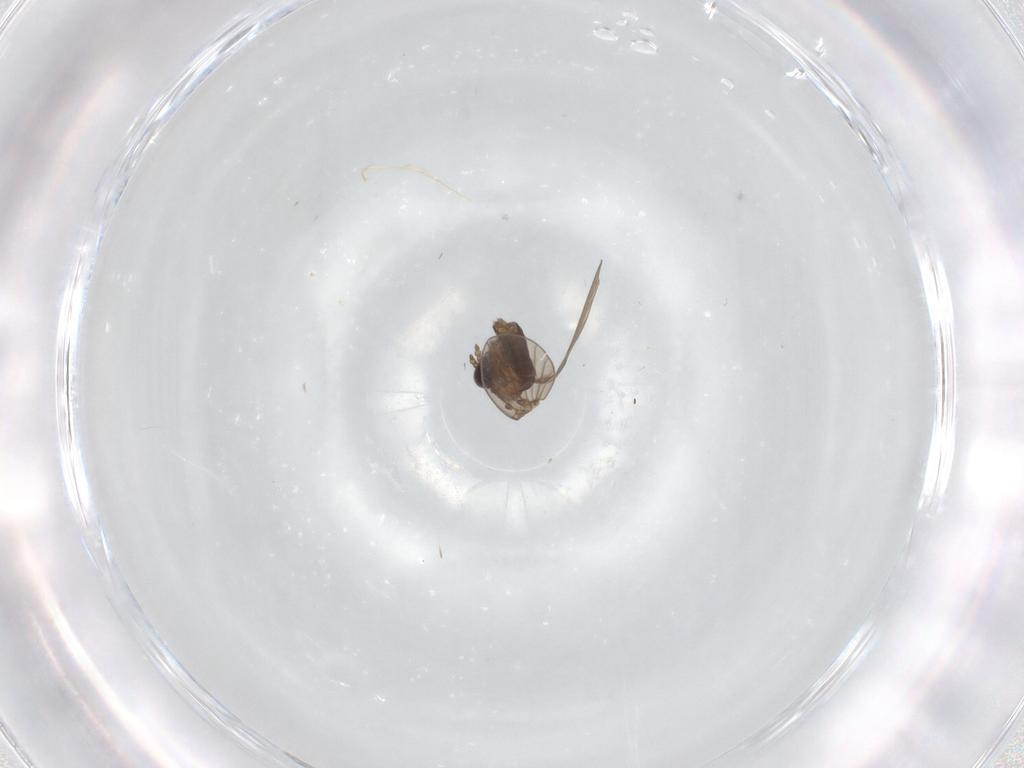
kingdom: Animalia
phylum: Arthropoda
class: Insecta
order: Diptera
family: Dolichopodidae
